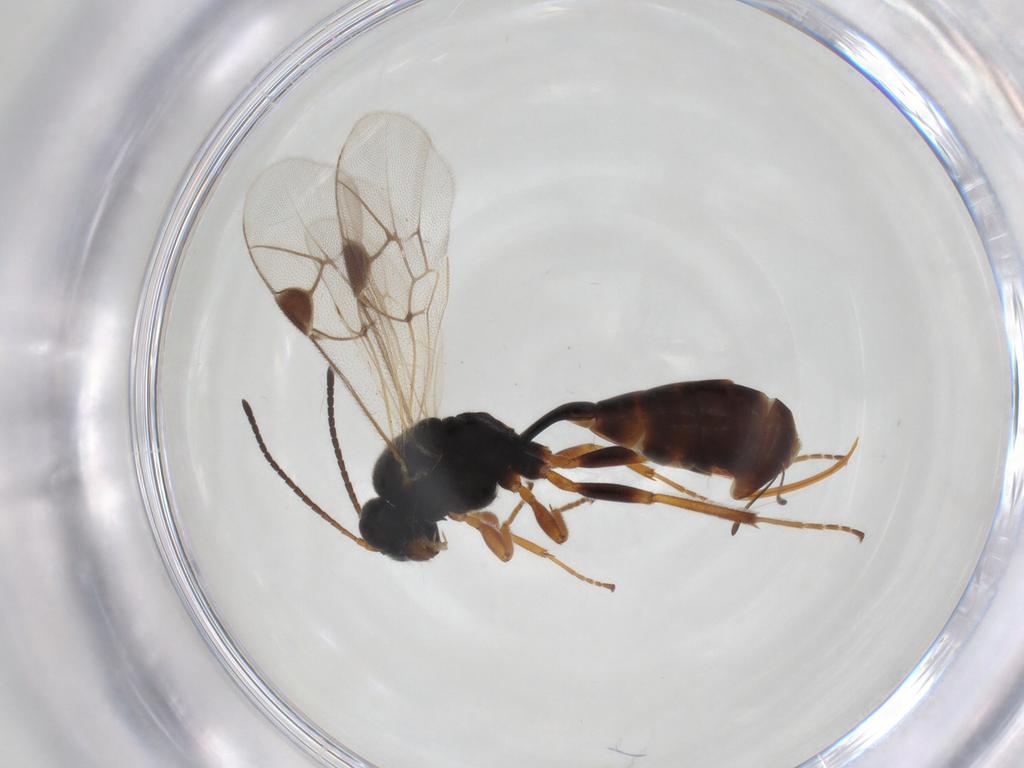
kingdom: Animalia
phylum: Arthropoda
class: Insecta
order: Hymenoptera
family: Ichneumonidae
